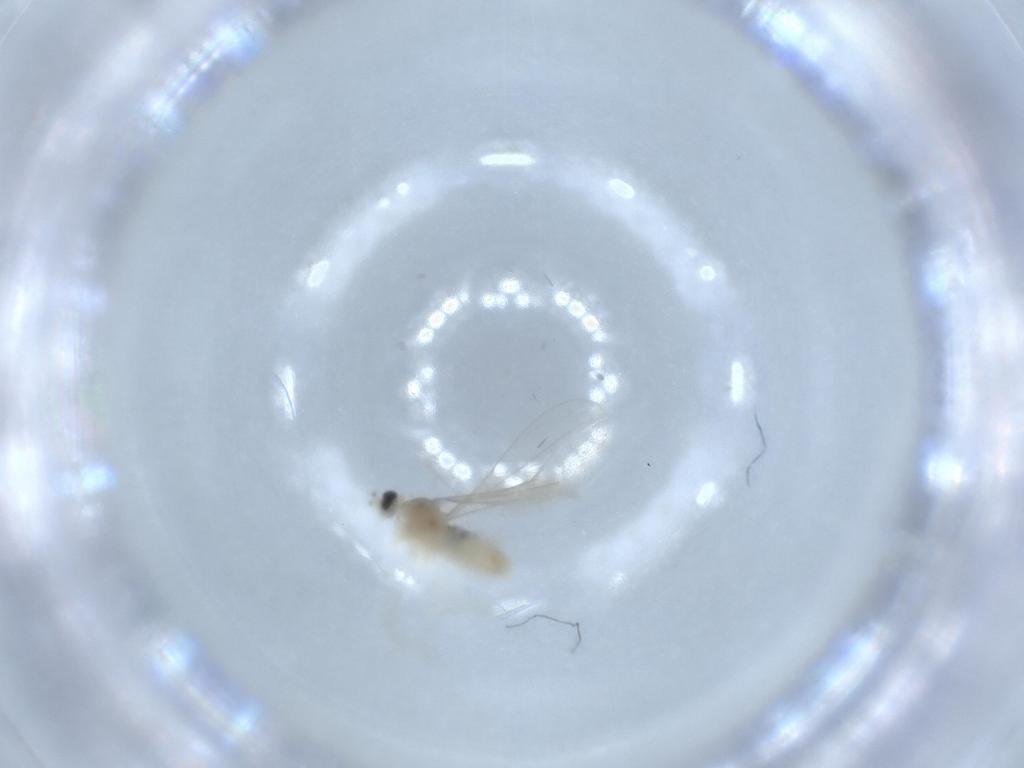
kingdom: Animalia
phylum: Arthropoda
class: Insecta
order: Diptera
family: Cecidomyiidae
